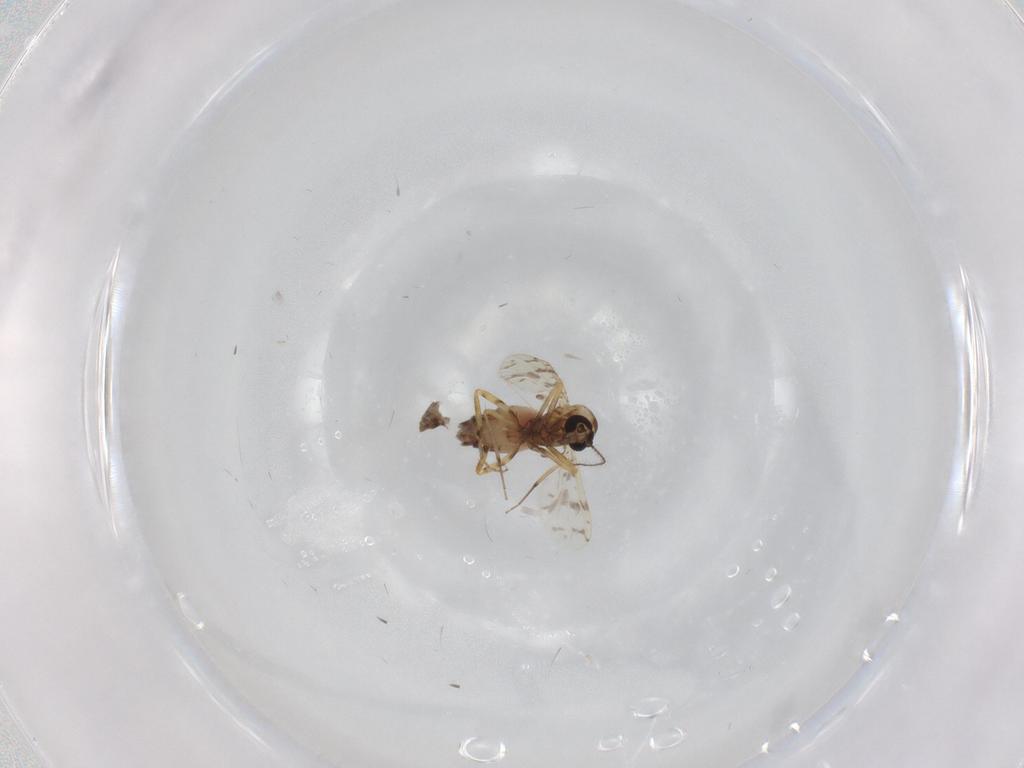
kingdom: Animalia
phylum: Arthropoda
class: Insecta
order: Diptera
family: Ceratopogonidae
